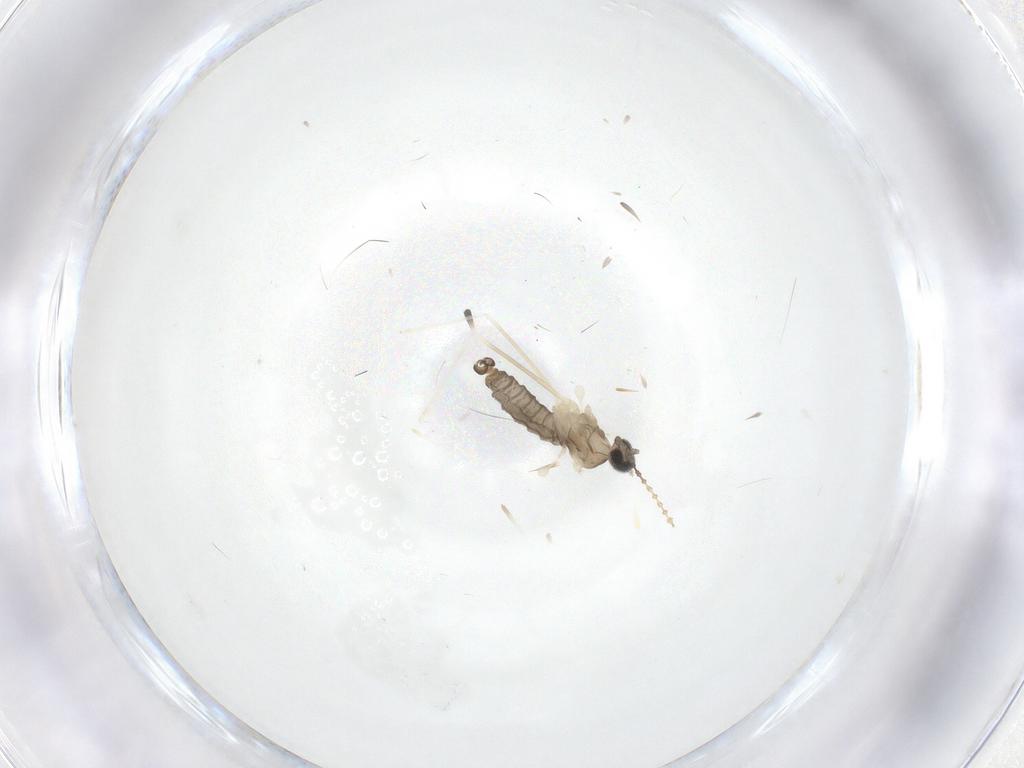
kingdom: Animalia
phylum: Arthropoda
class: Insecta
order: Diptera
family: Cecidomyiidae
